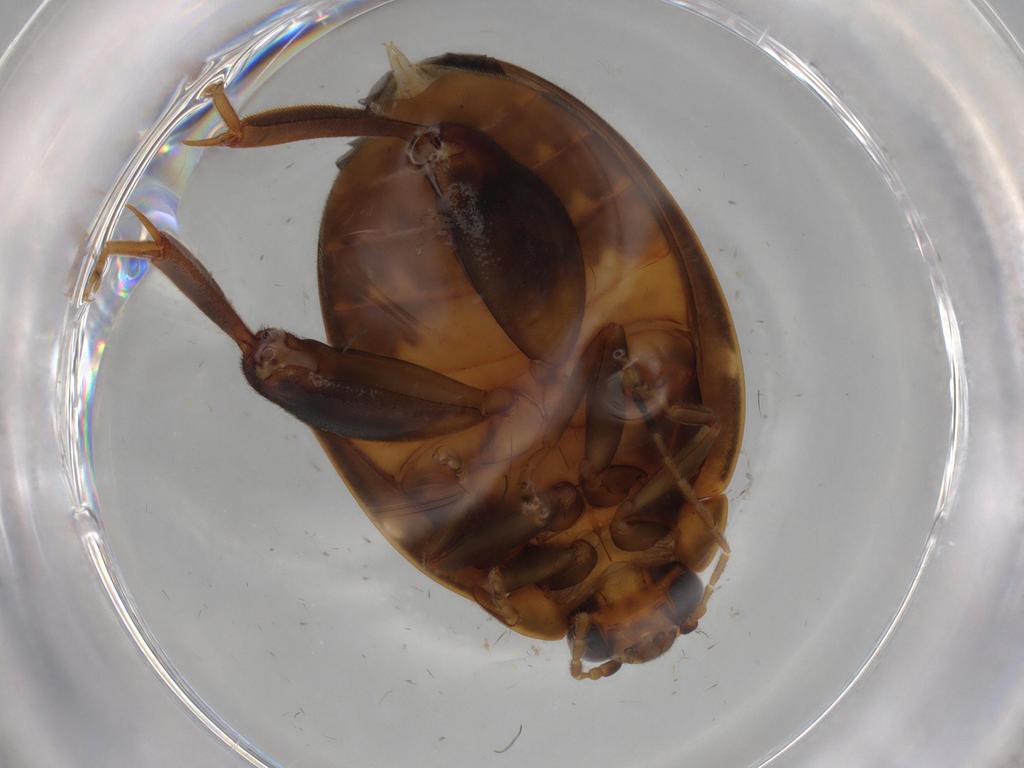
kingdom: Animalia
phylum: Arthropoda
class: Insecta
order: Coleoptera
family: Scirtidae
